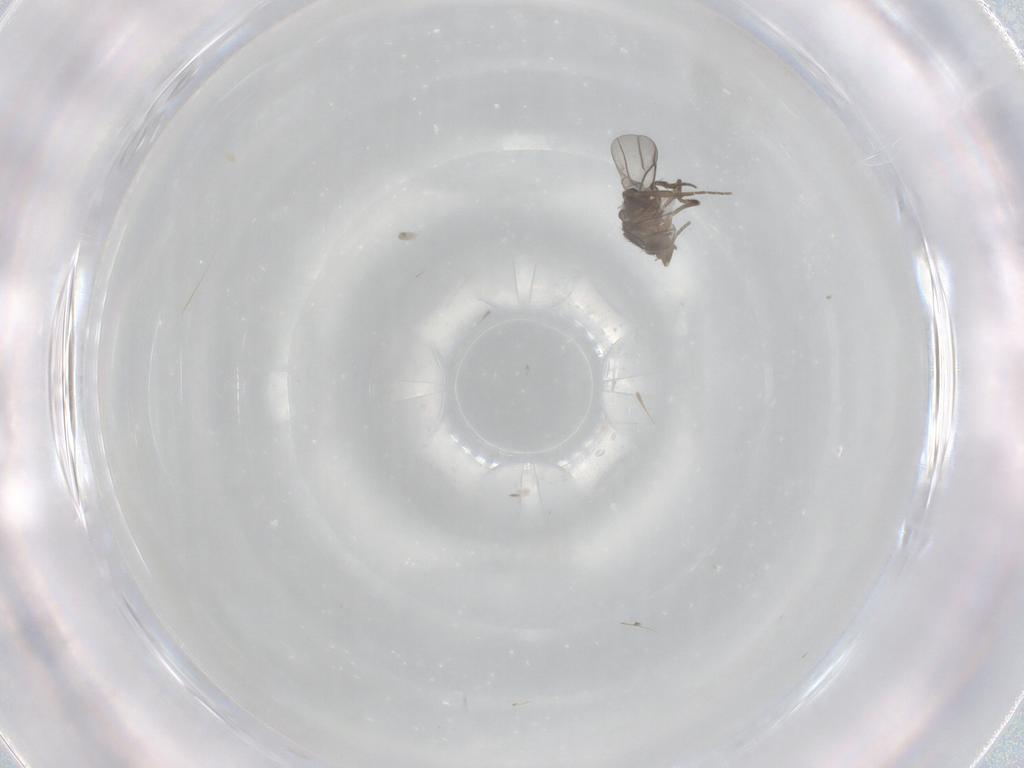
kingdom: Animalia
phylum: Arthropoda
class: Insecta
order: Diptera
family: Phoridae
